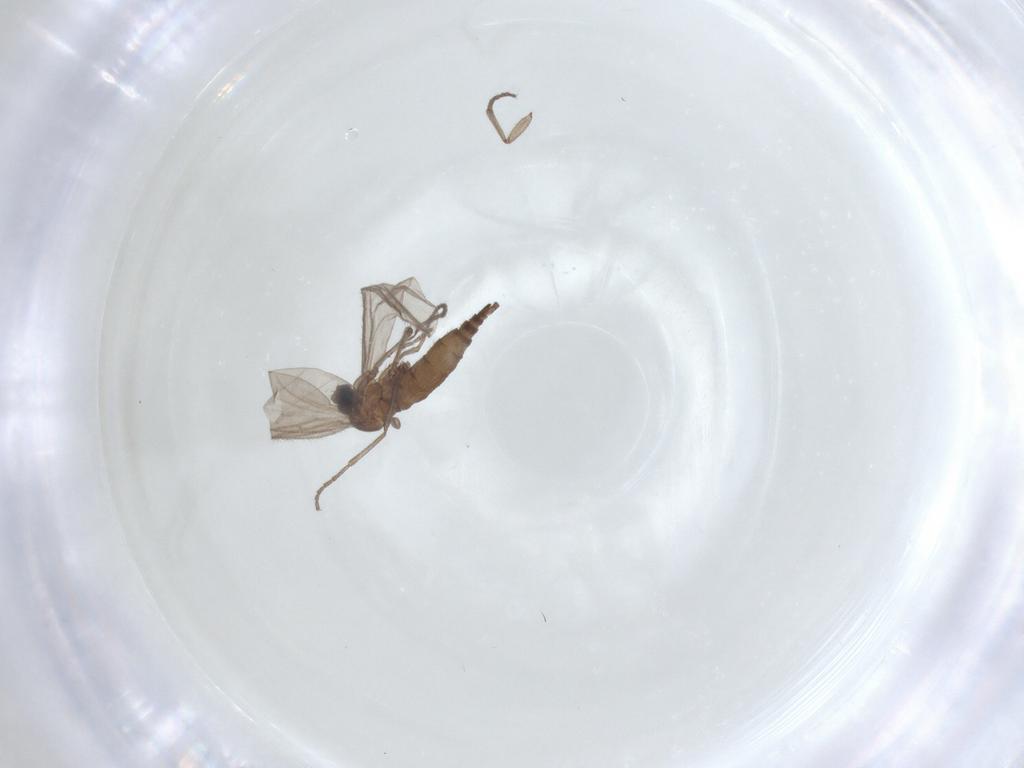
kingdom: Animalia
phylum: Arthropoda
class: Insecta
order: Diptera
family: Sciaridae
